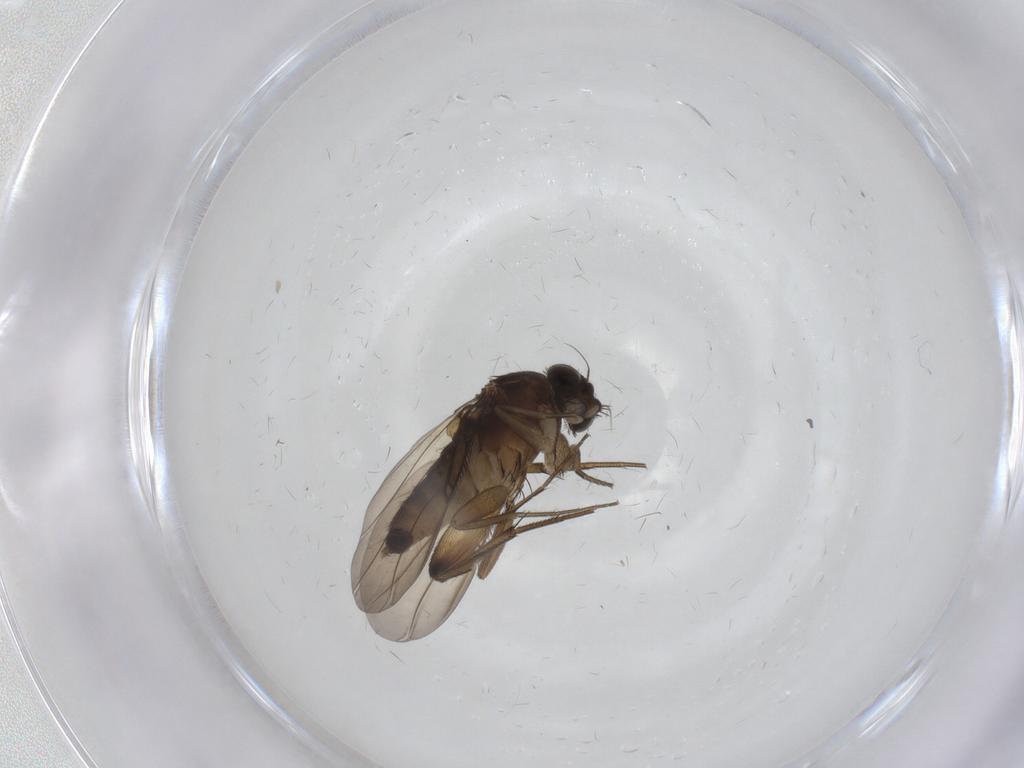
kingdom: Animalia
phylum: Arthropoda
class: Insecta
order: Diptera
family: Phoridae
